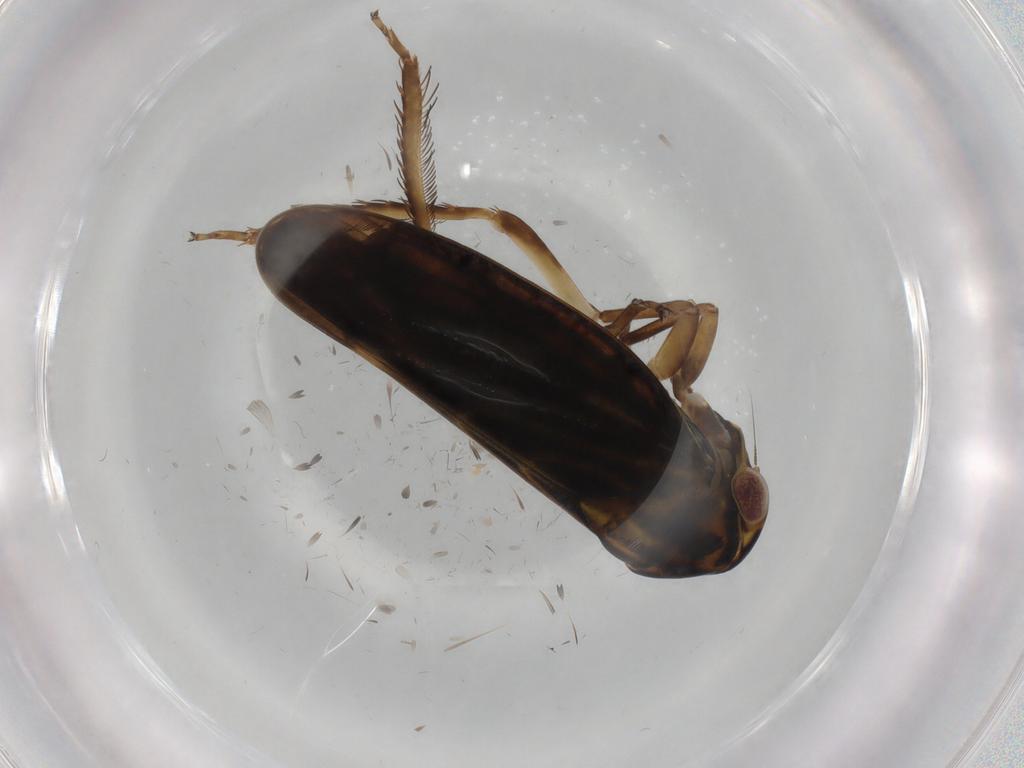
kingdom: Animalia
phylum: Arthropoda
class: Insecta
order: Hemiptera
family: Cicadellidae
